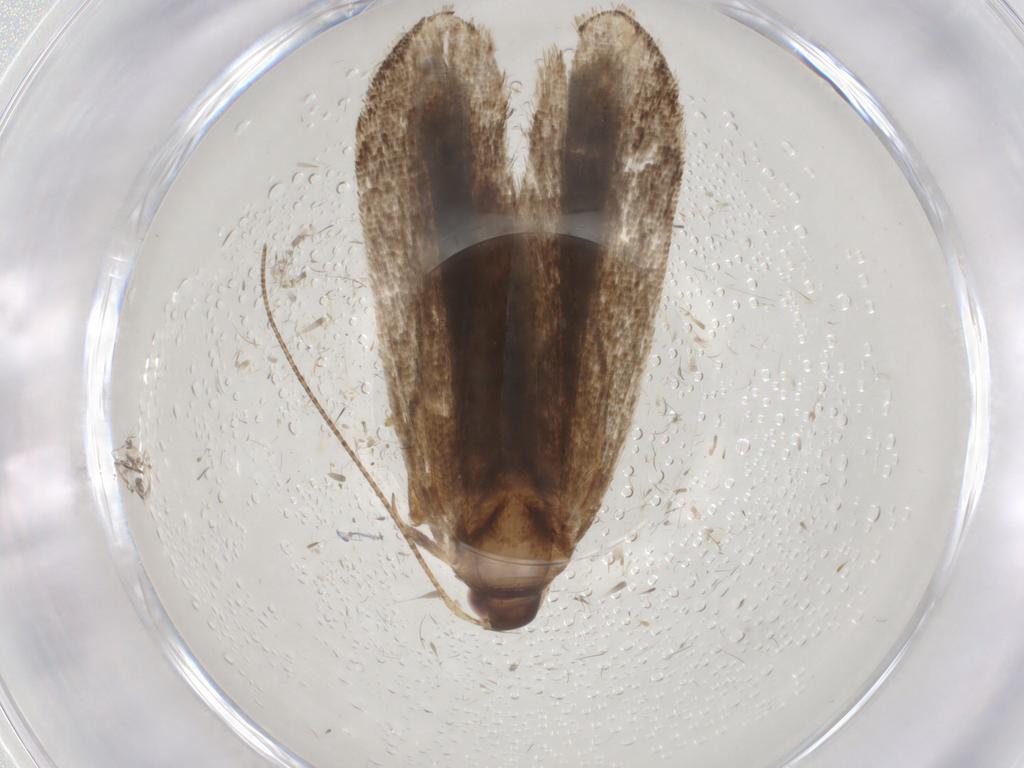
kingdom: Animalia
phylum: Arthropoda
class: Insecta
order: Lepidoptera
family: Gelechiidae
